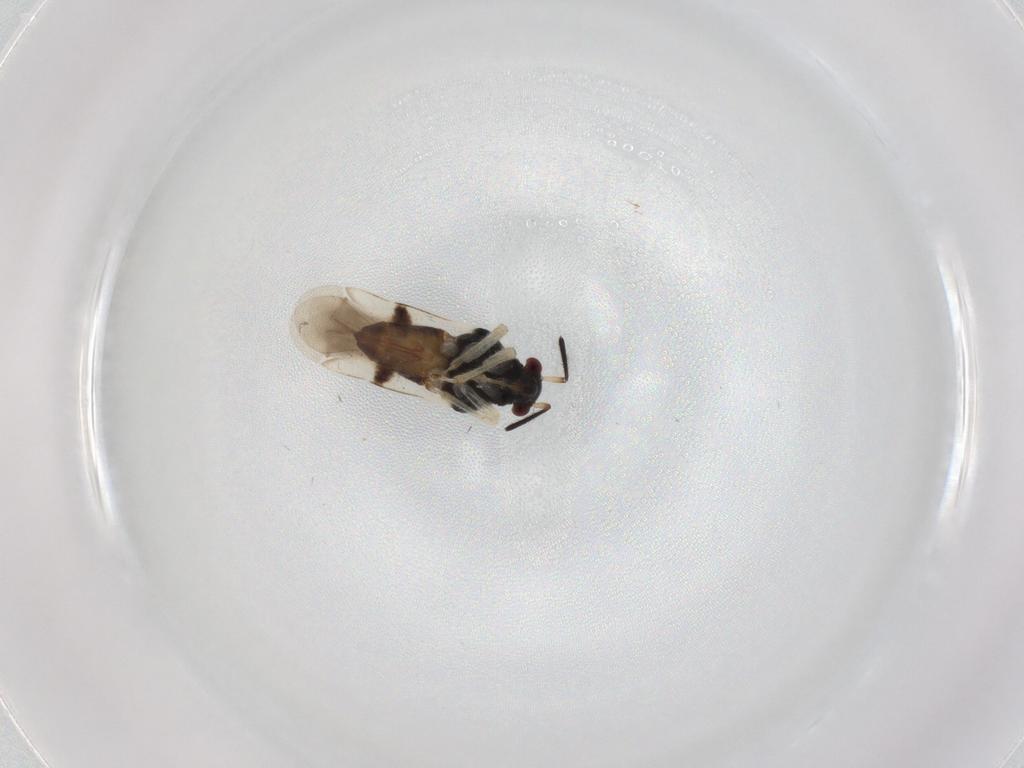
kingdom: Animalia
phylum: Arthropoda
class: Insecta
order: Hemiptera
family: Miridae
